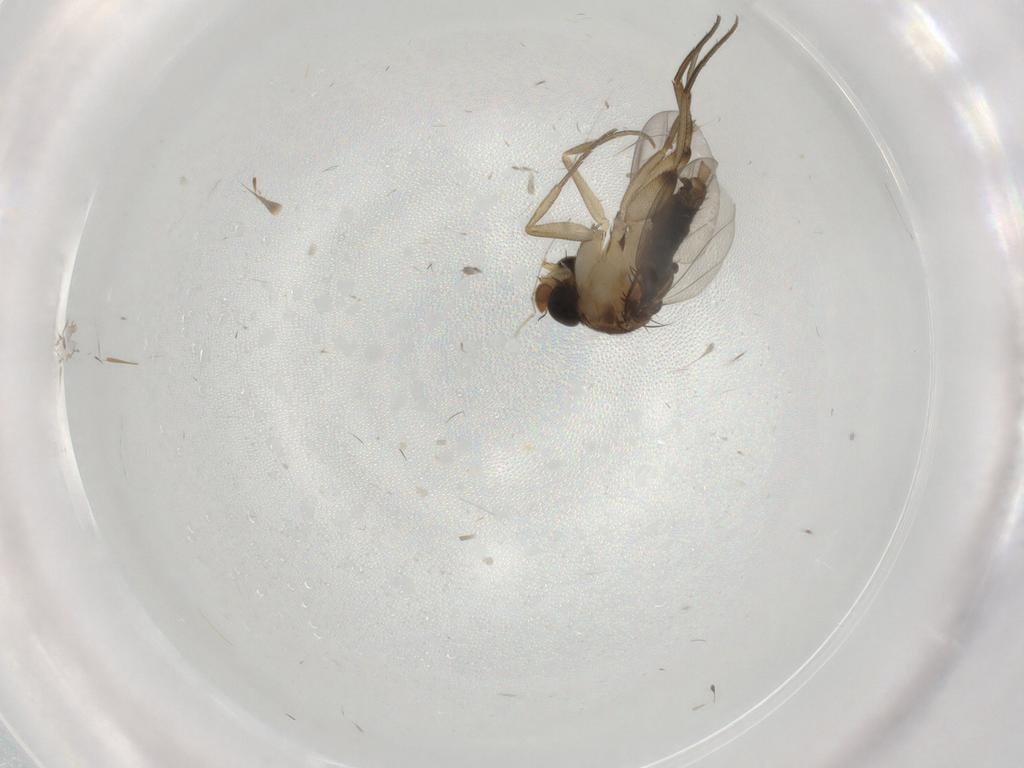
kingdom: Animalia
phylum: Arthropoda
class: Insecta
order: Diptera
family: Phoridae
